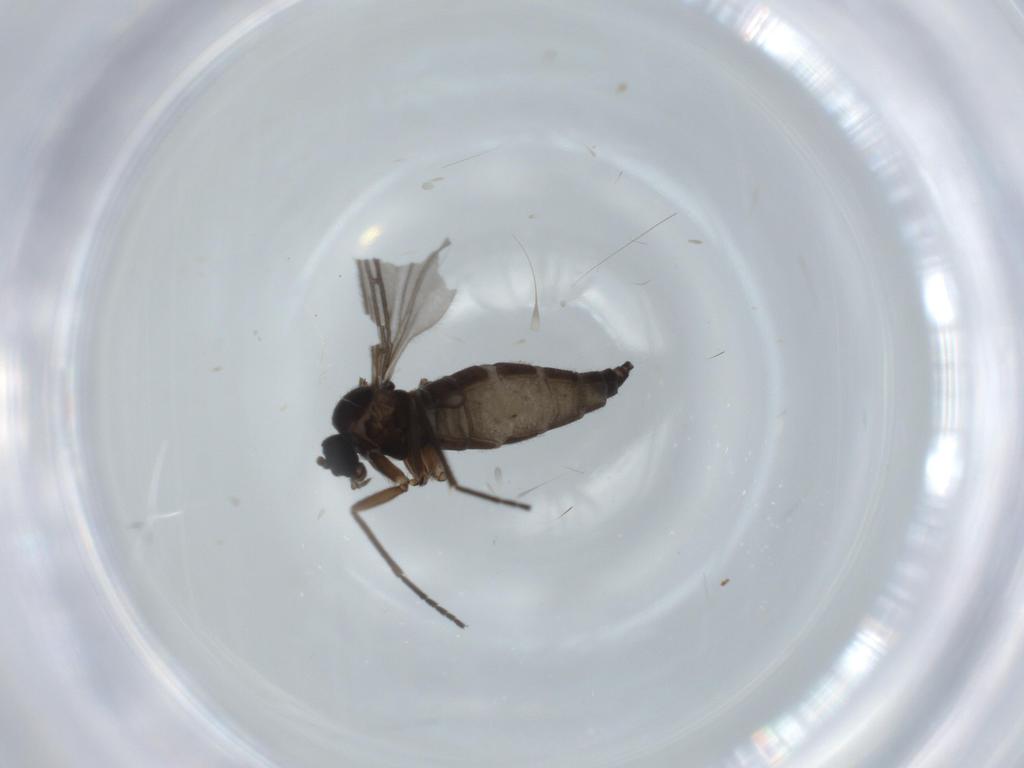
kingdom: Animalia
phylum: Arthropoda
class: Insecta
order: Diptera
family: Sciaridae
